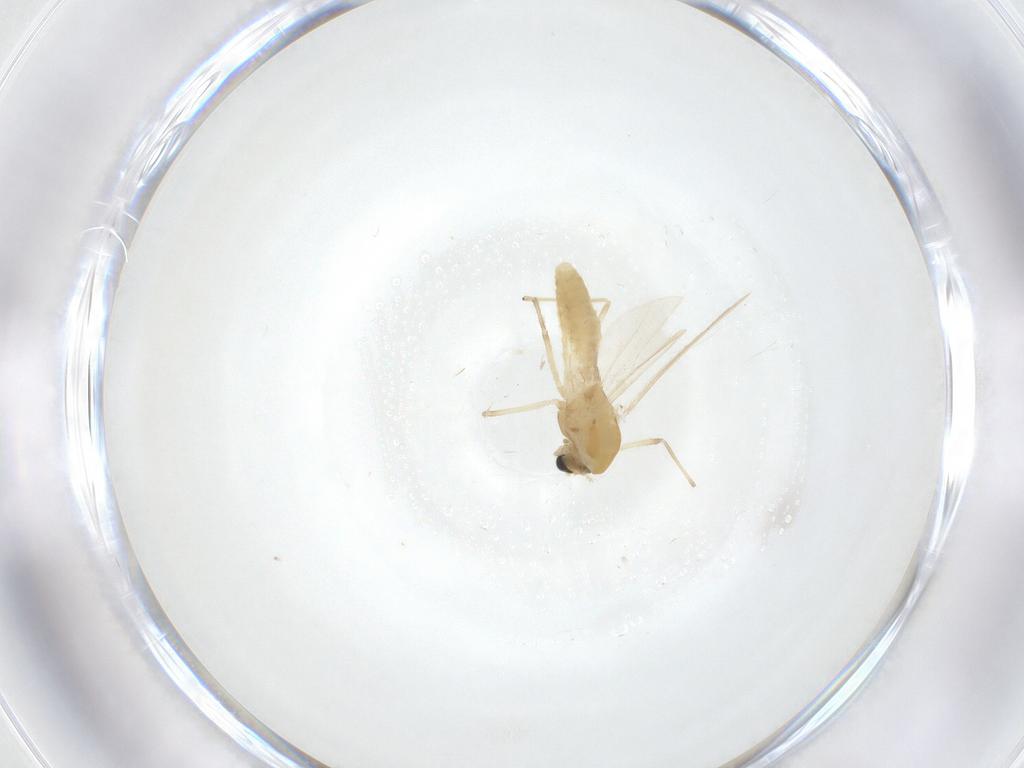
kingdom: Animalia
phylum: Arthropoda
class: Insecta
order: Diptera
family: Chironomidae
